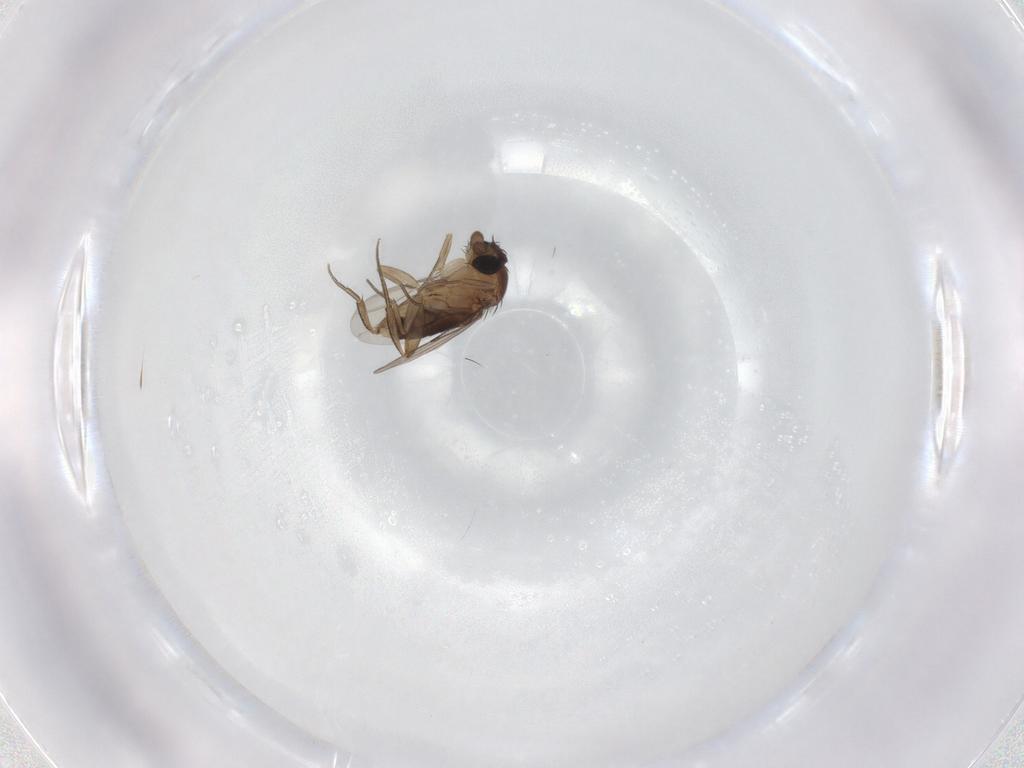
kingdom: Animalia
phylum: Arthropoda
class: Insecta
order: Diptera
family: Phoridae
